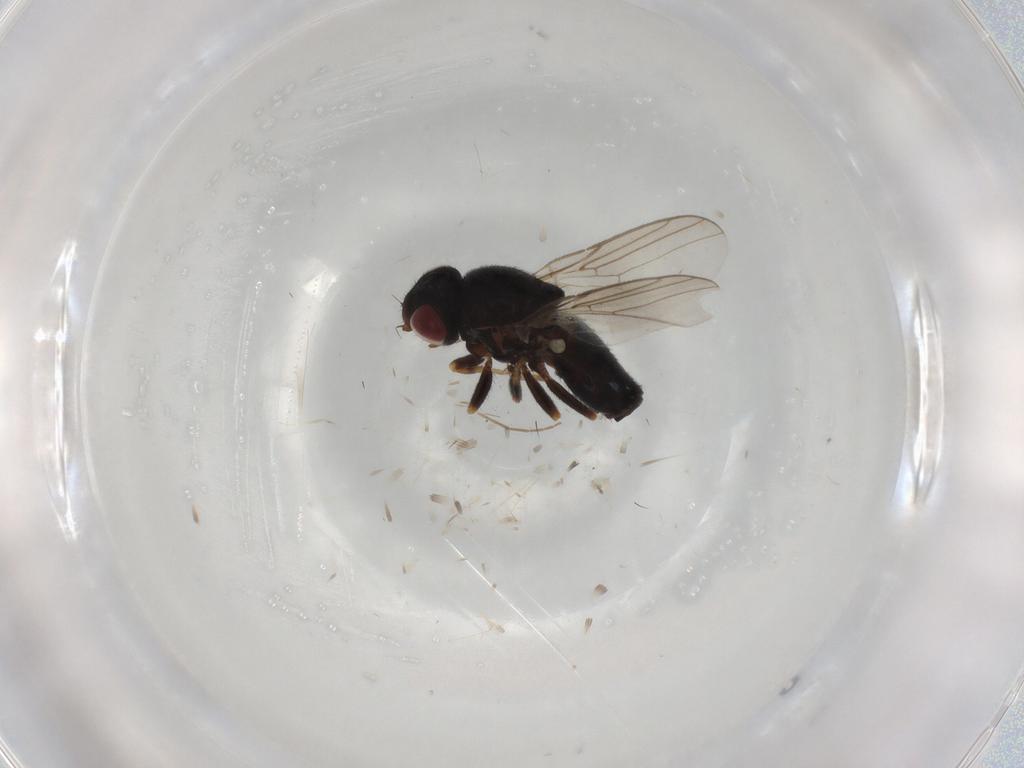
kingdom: Animalia
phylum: Arthropoda
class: Insecta
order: Diptera
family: Chloropidae
